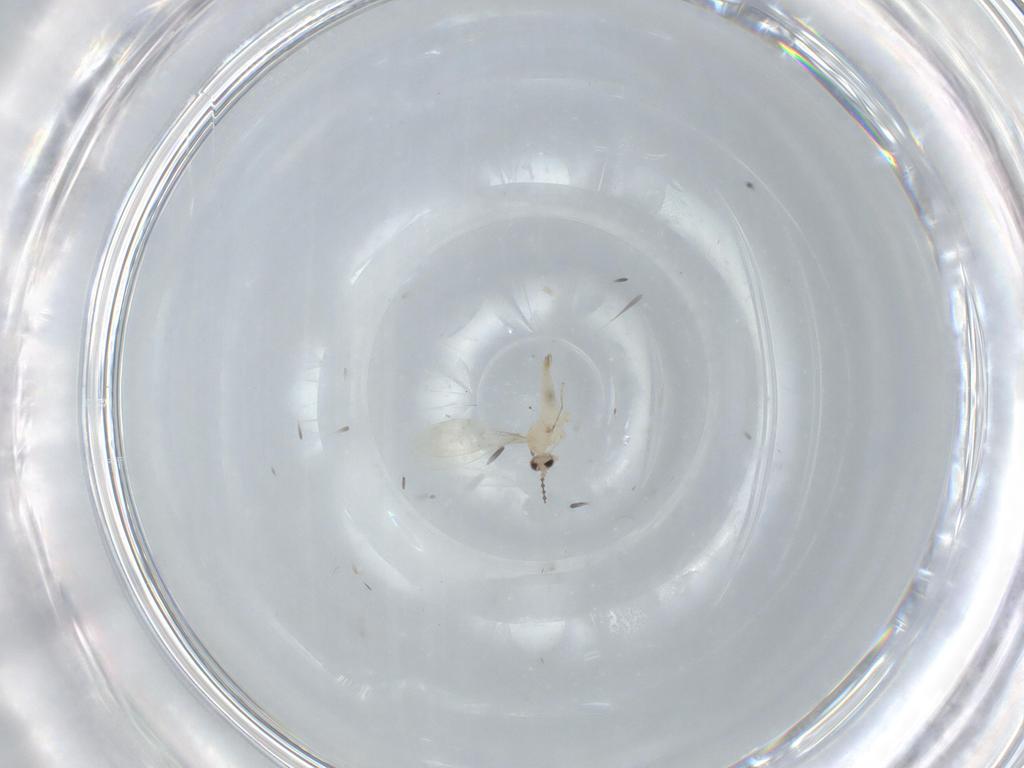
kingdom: Animalia
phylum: Arthropoda
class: Insecta
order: Diptera
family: Cecidomyiidae
